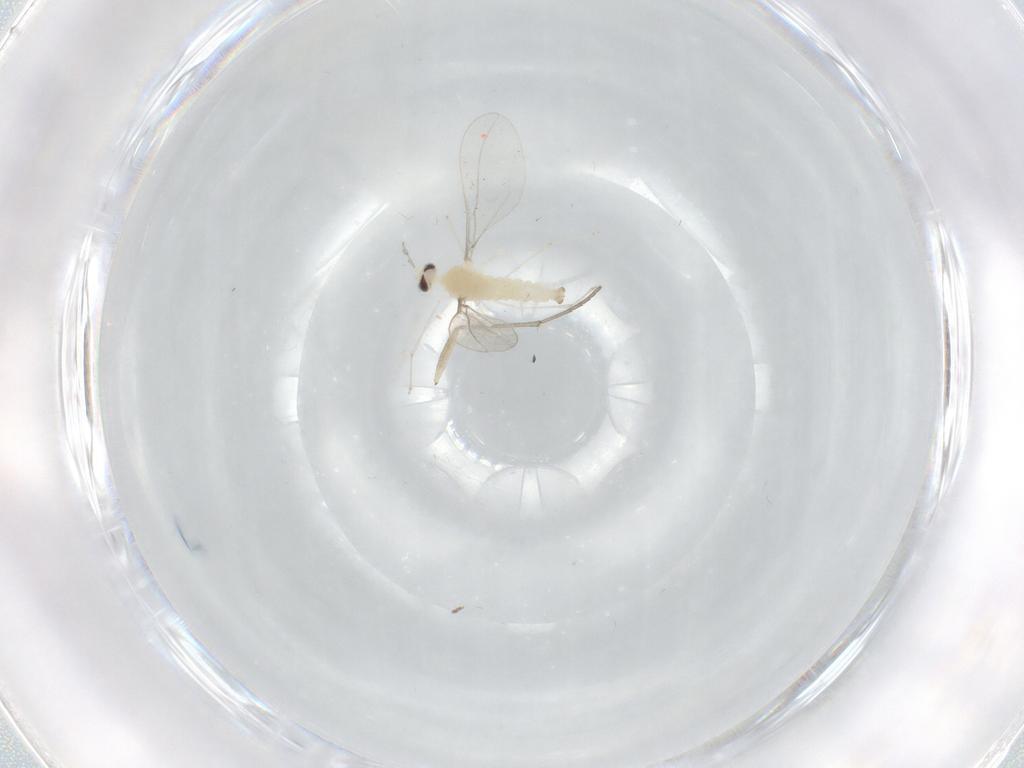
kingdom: Animalia
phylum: Arthropoda
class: Insecta
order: Diptera
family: Cecidomyiidae
